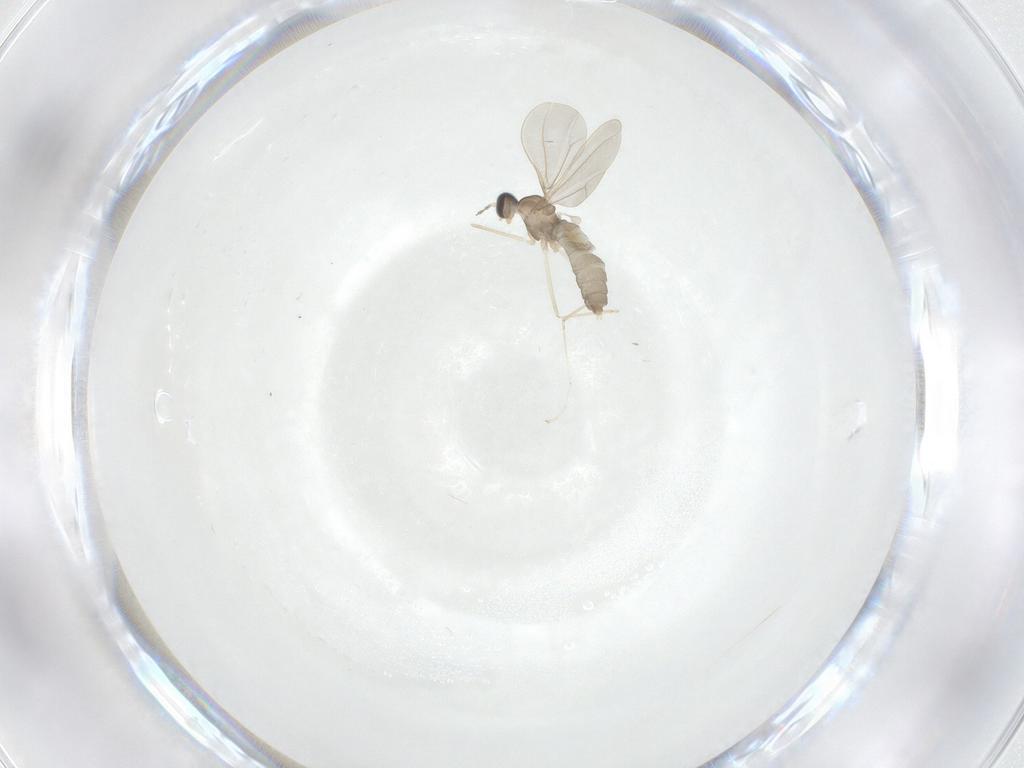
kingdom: Animalia
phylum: Arthropoda
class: Insecta
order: Diptera
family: Cecidomyiidae
